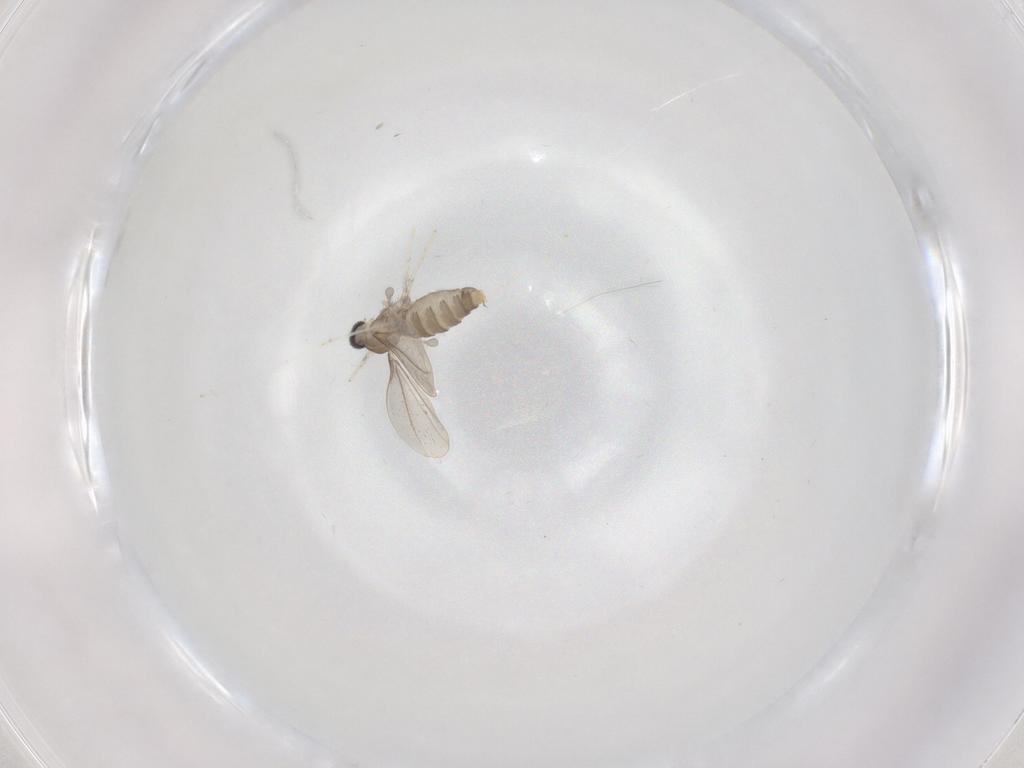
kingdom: Animalia
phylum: Arthropoda
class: Insecta
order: Diptera
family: Cecidomyiidae
